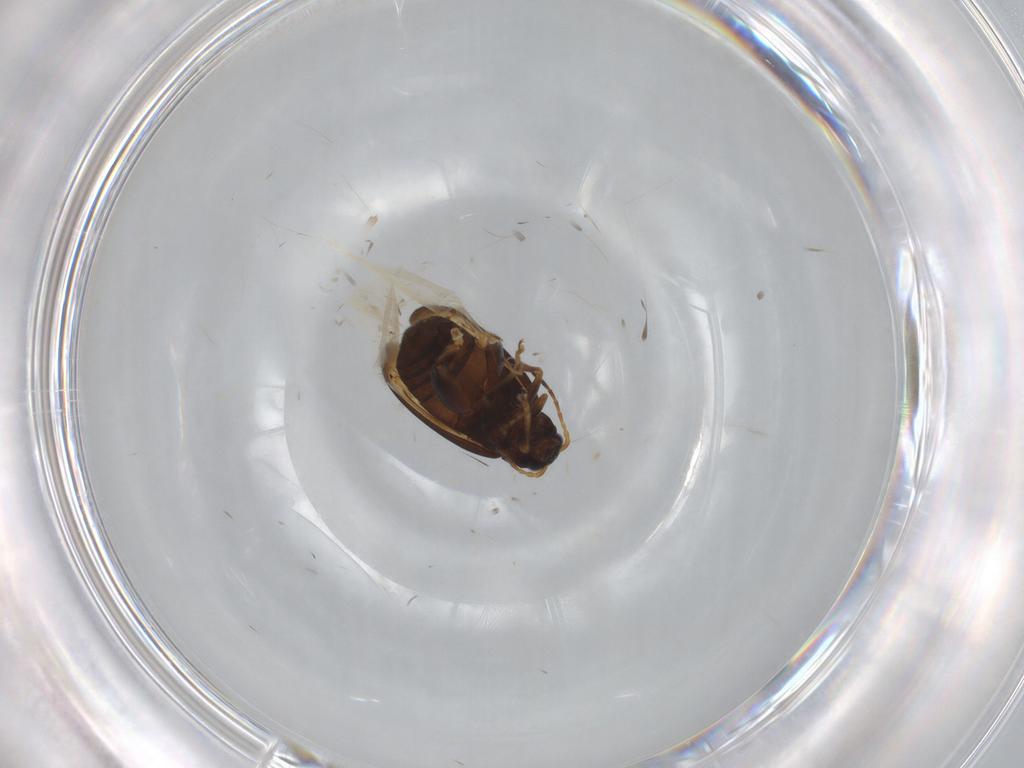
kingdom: Animalia
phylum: Arthropoda
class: Insecta
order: Coleoptera
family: Chrysomelidae
